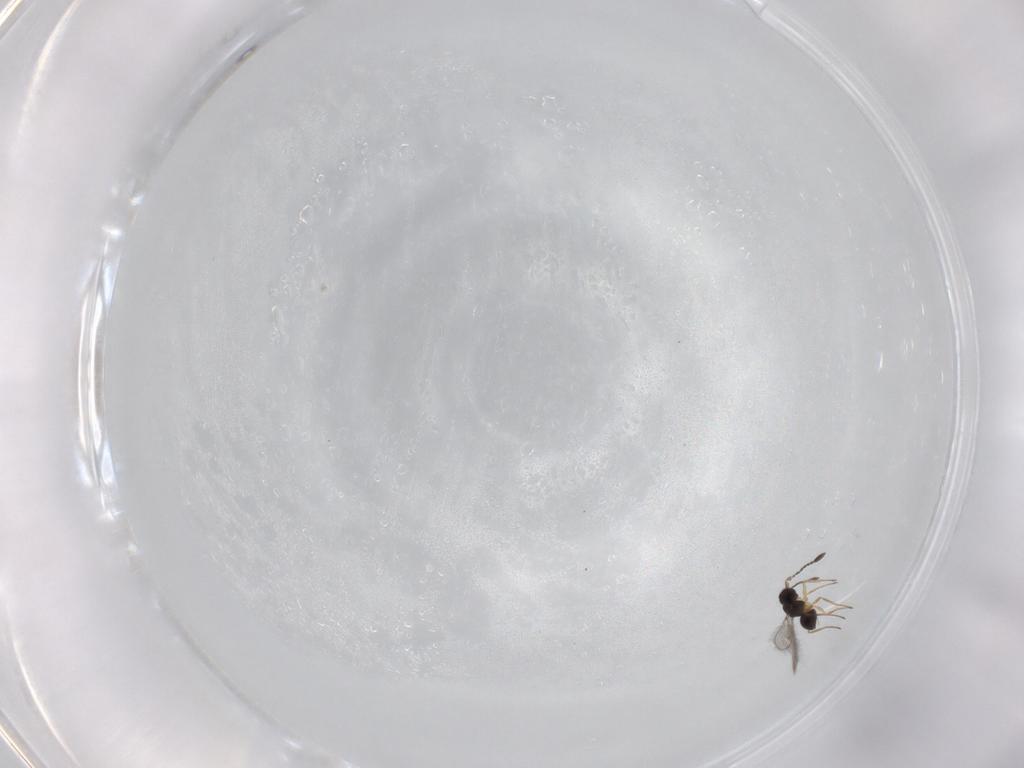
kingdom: Animalia
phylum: Arthropoda
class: Insecta
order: Hymenoptera
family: Mymaridae
